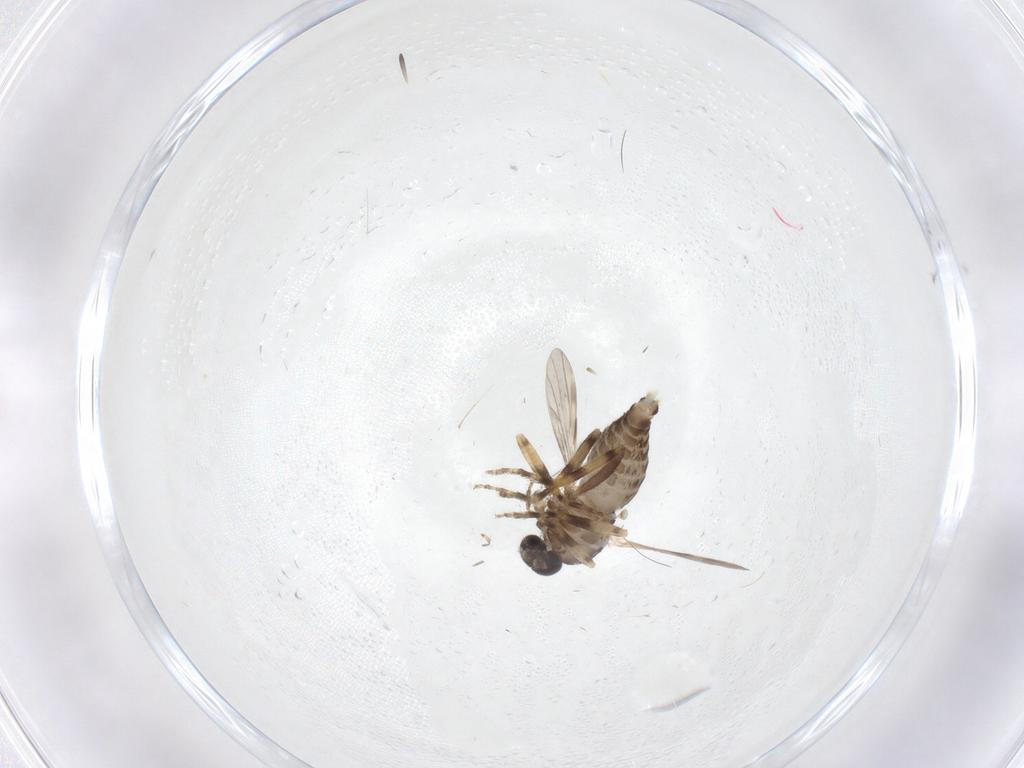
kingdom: Animalia
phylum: Arthropoda
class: Insecta
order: Diptera
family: Ceratopogonidae
